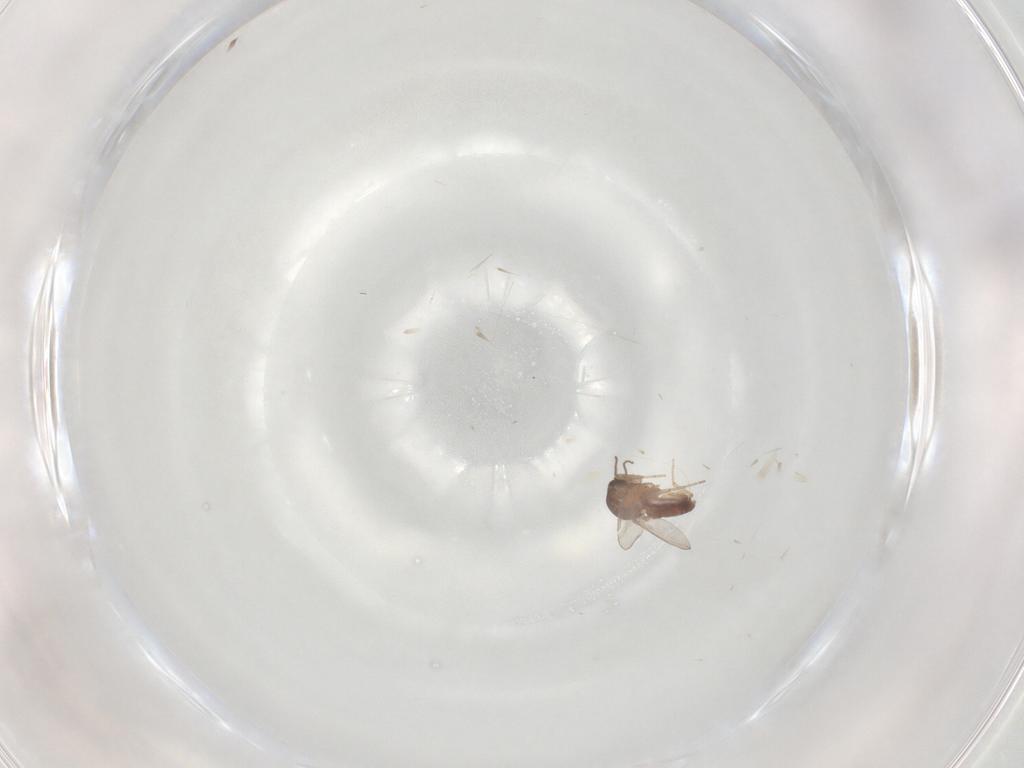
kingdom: Animalia
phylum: Arthropoda
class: Insecta
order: Diptera
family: Ceratopogonidae
